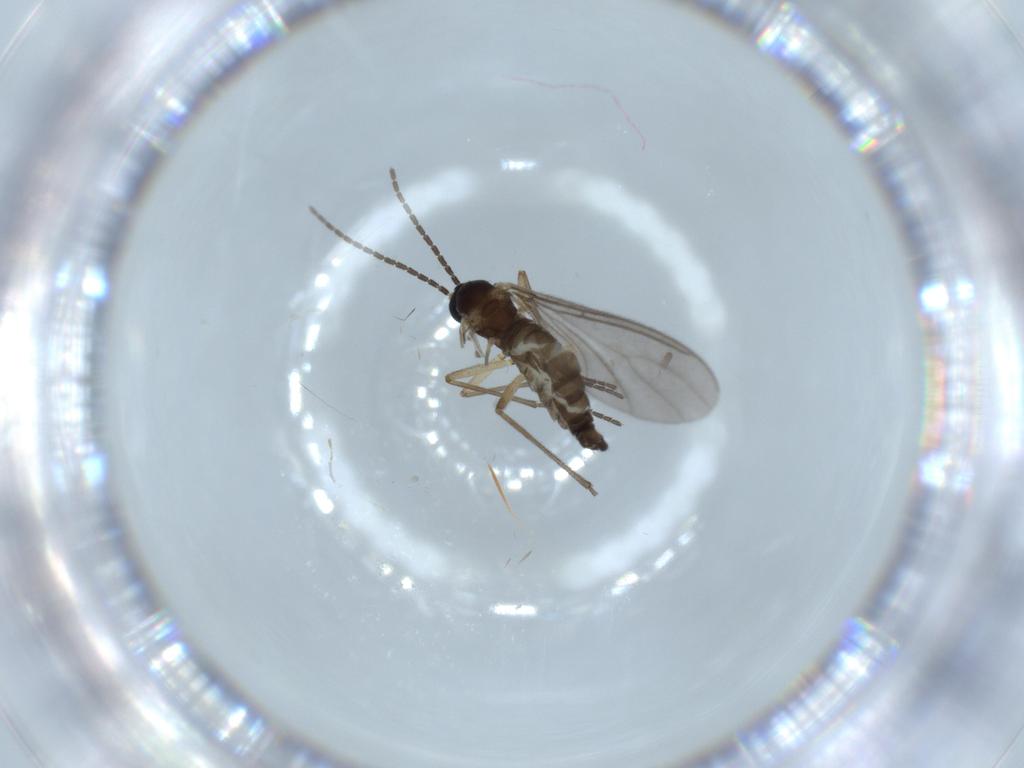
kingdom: Animalia
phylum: Arthropoda
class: Insecta
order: Diptera
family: Sciaridae
